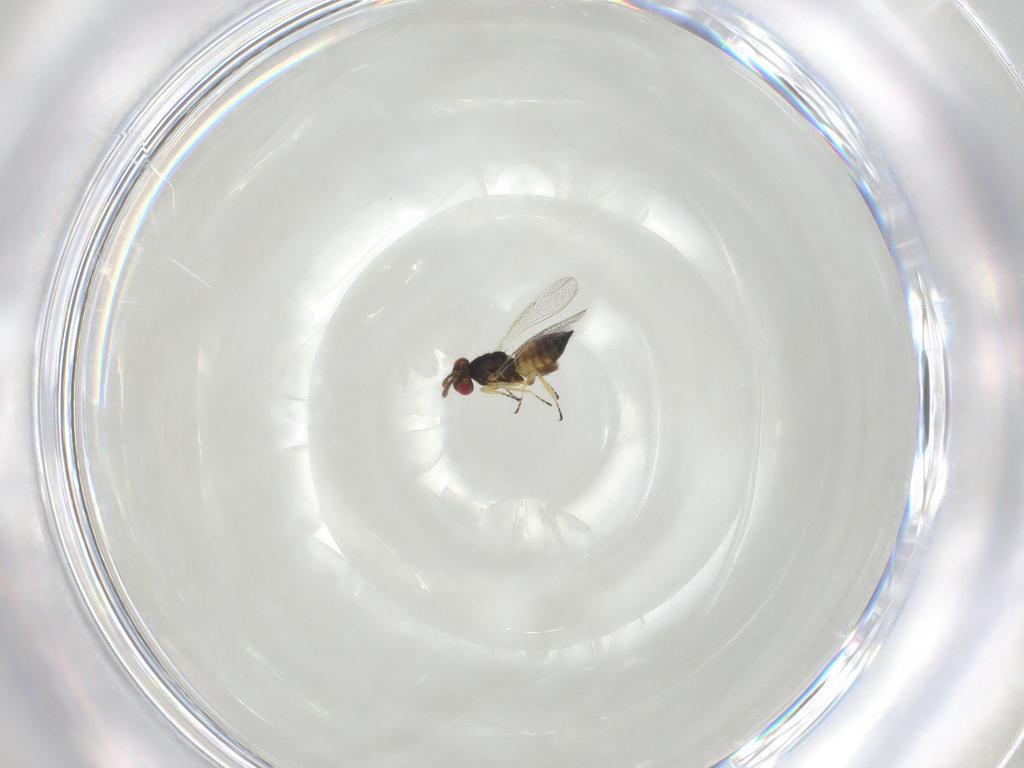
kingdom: Animalia
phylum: Arthropoda
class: Insecta
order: Hymenoptera
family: Eulophidae
